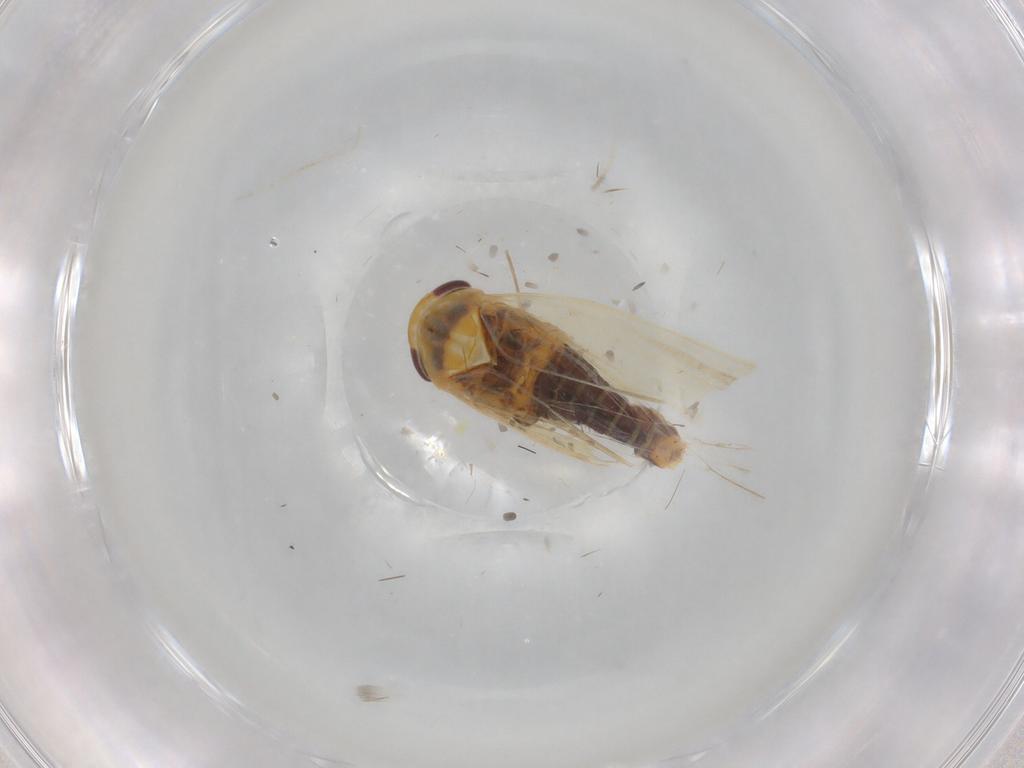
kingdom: Animalia
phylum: Arthropoda
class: Insecta
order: Hemiptera
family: Cicadellidae
